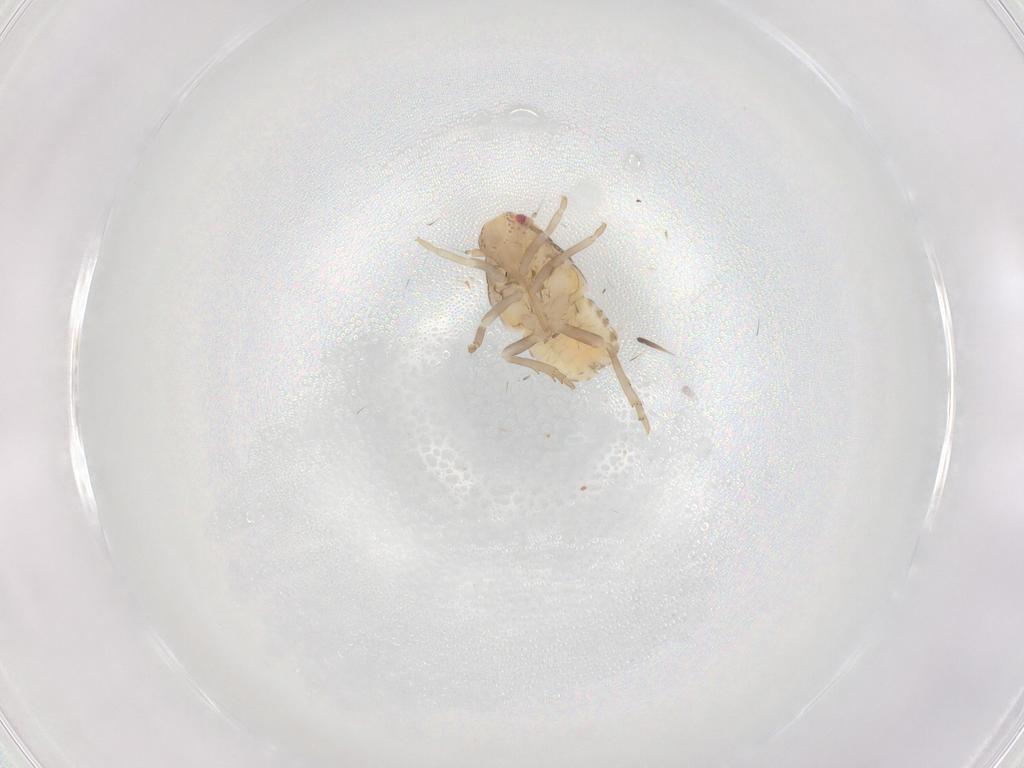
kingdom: Animalia
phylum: Arthropoda
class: Insecta
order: Hemiptera
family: Flatidae
